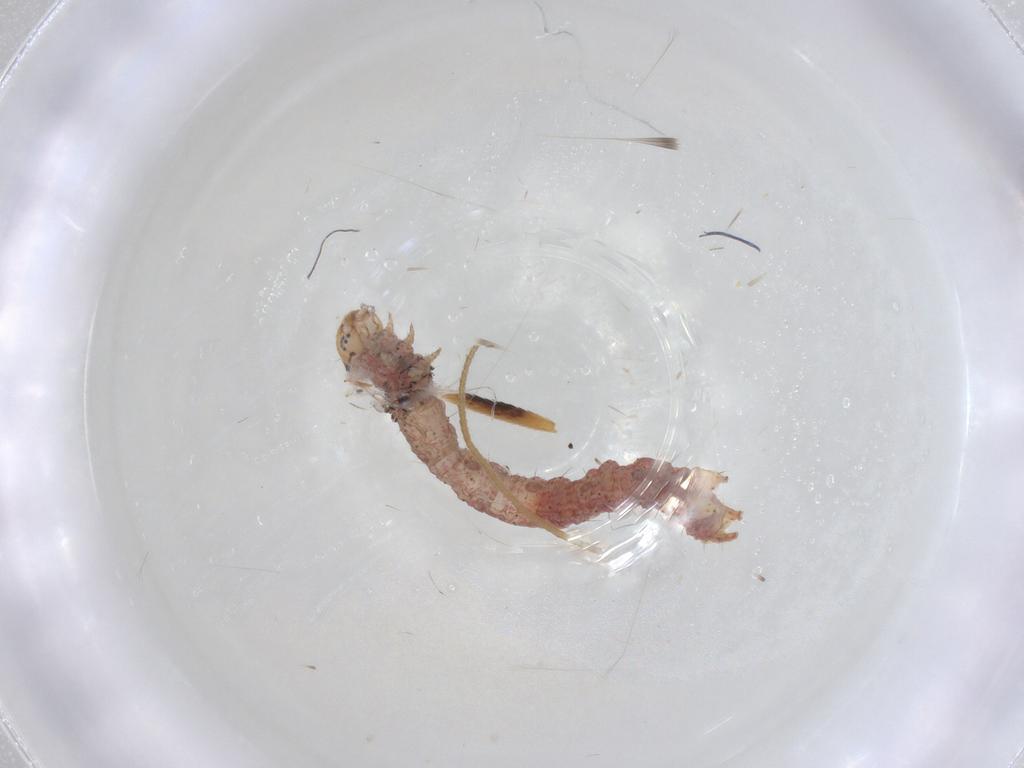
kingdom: Animalia
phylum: Arthropoda
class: Insecta
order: Lepidoptera
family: Geometridae
